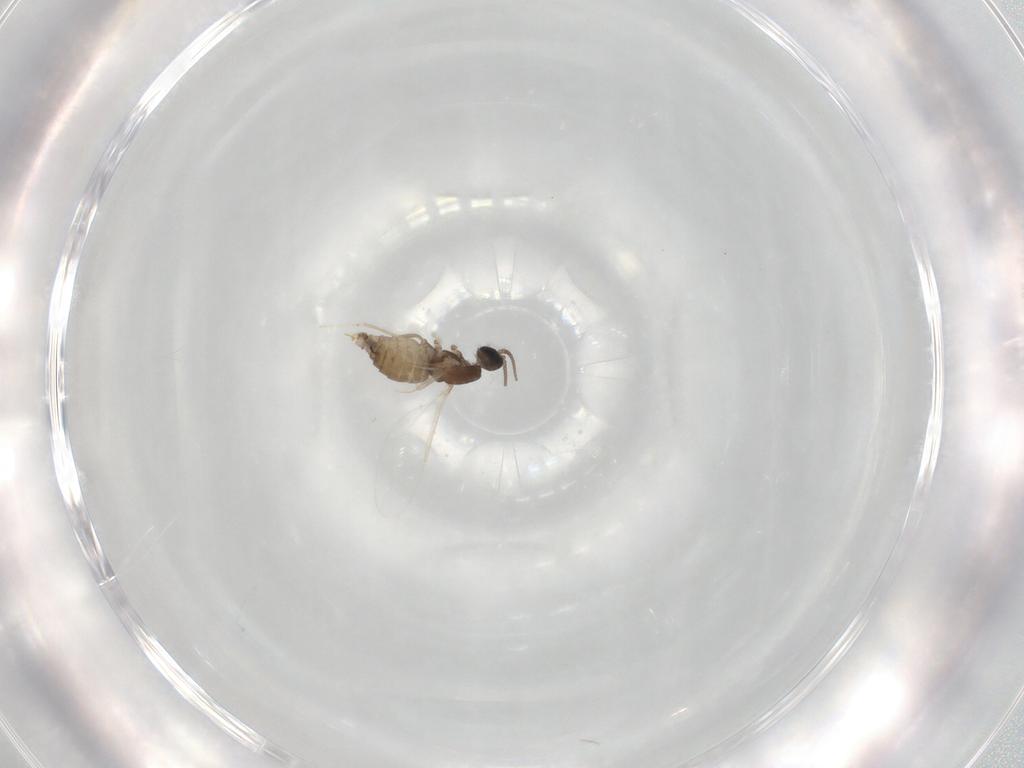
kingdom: Animalia
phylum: Arthropoda
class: Insecta
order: Diptera
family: Cecidomyiidae
